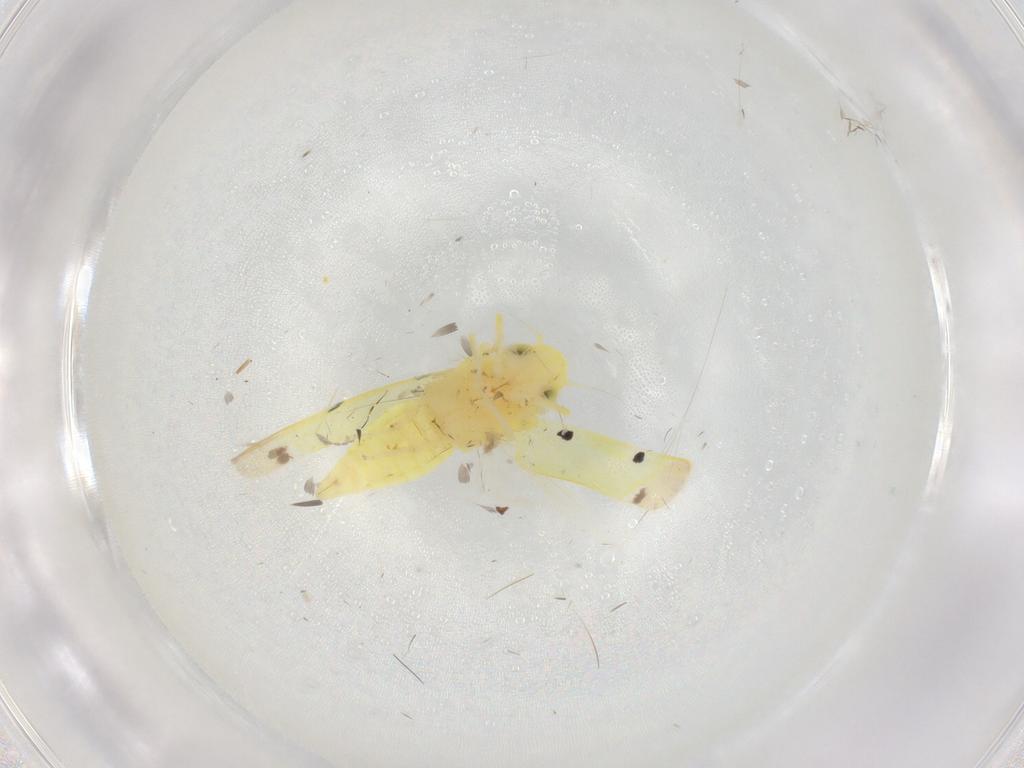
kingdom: Animalia
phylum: Arthropoda
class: Insecta
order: Hemiptera
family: Cicadellidae
